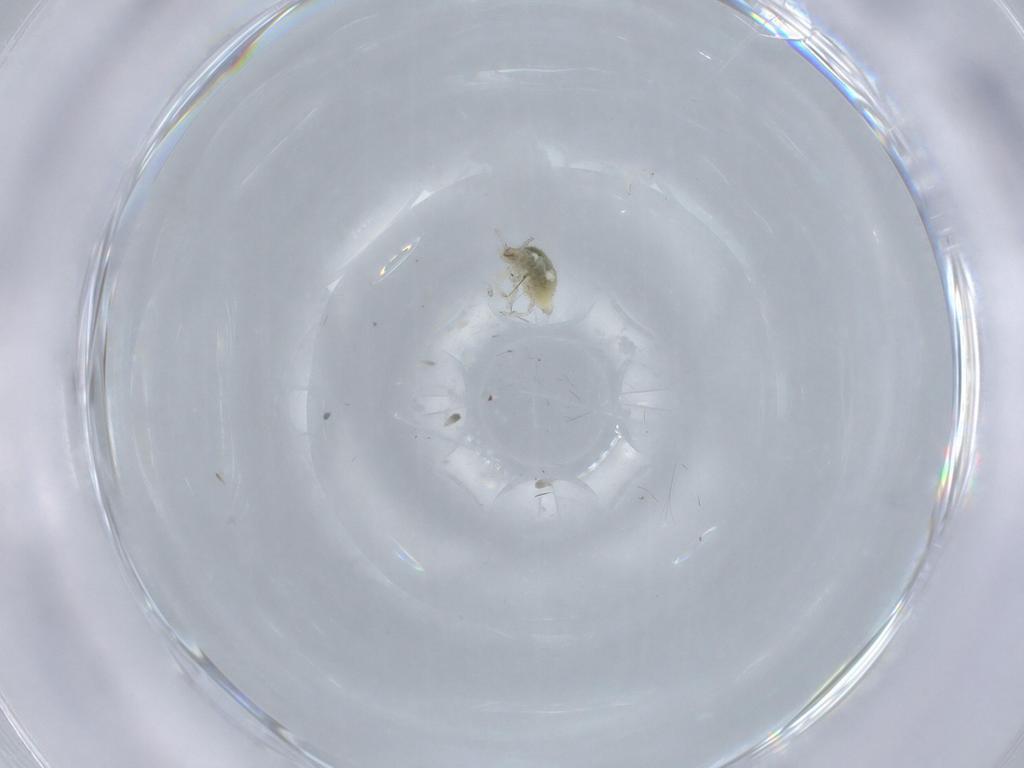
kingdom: Animalia
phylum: Arthropoda
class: Insecta
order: Neuroptera
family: Coniopterygidae
